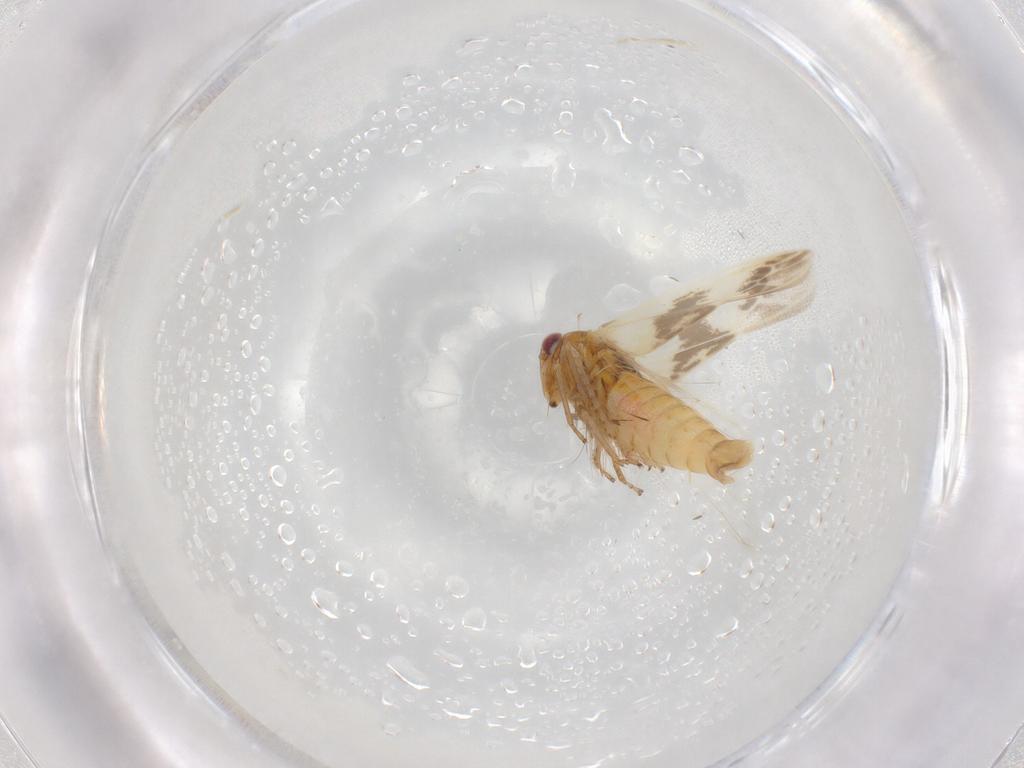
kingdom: Animalia
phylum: Arthropoda
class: Insecta
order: Hemiptera
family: Cicadellidae
